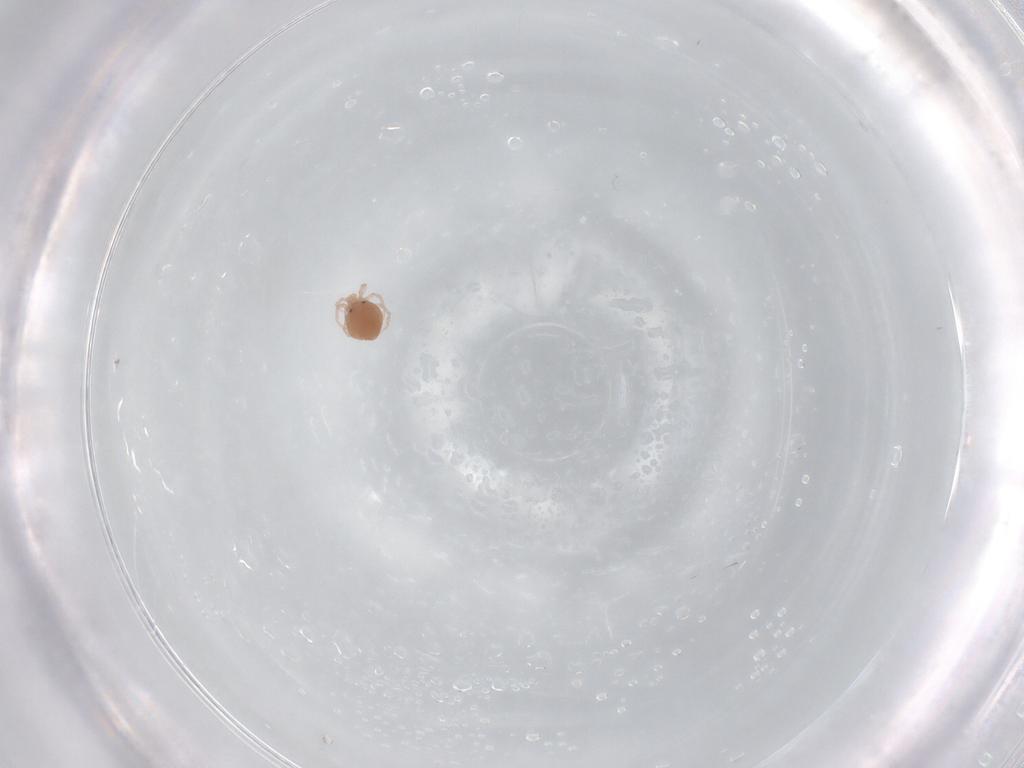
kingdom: Animalia
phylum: Arthropoda
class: Arachnida
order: Trombidiformes
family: Lebertiidae
